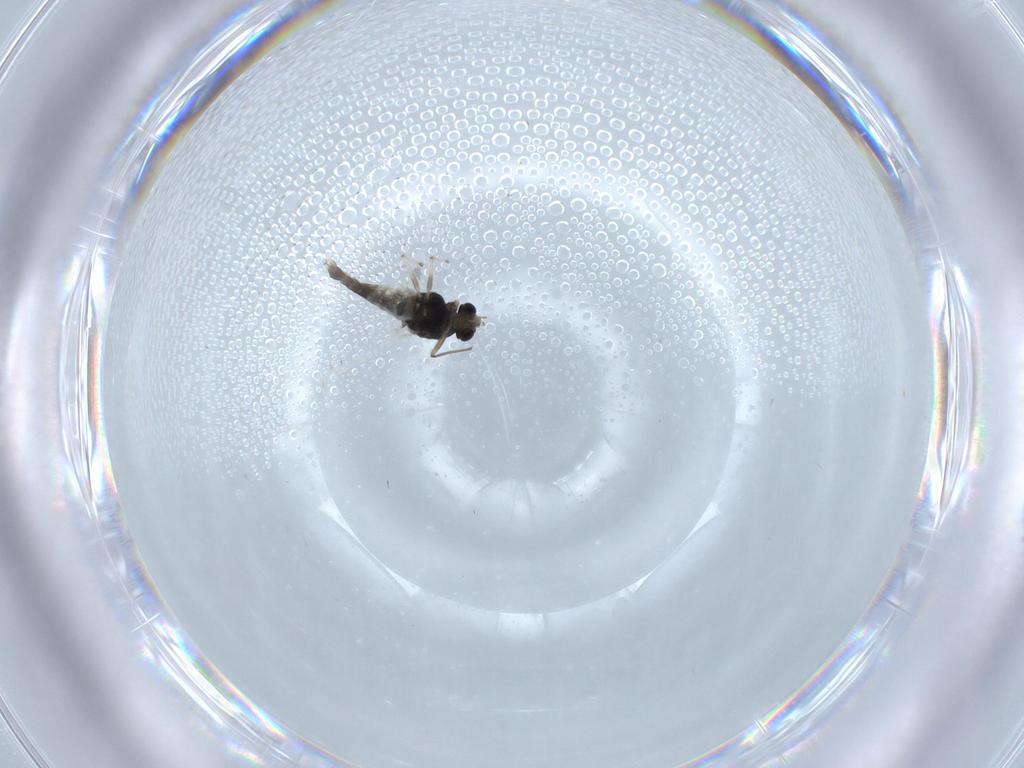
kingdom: Animalia
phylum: Arthropoda
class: Insecta
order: Diptera
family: Chironomidae
